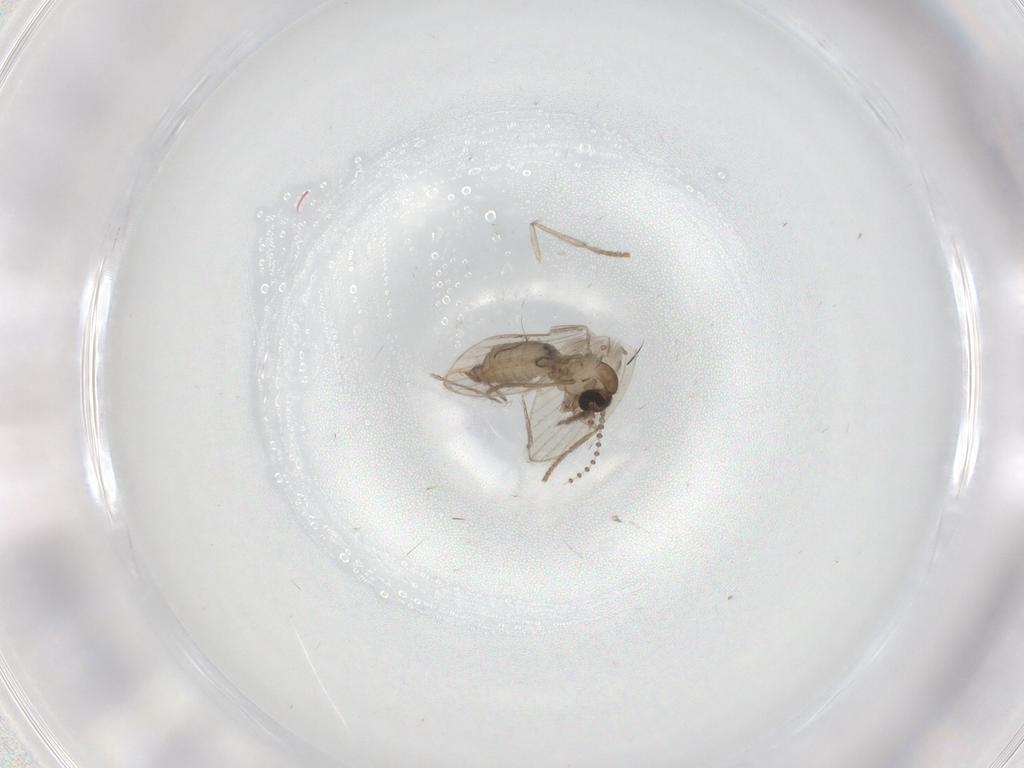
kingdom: Animalia
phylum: Arthropoda
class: Insecta
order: Diptera
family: Psychodidae
